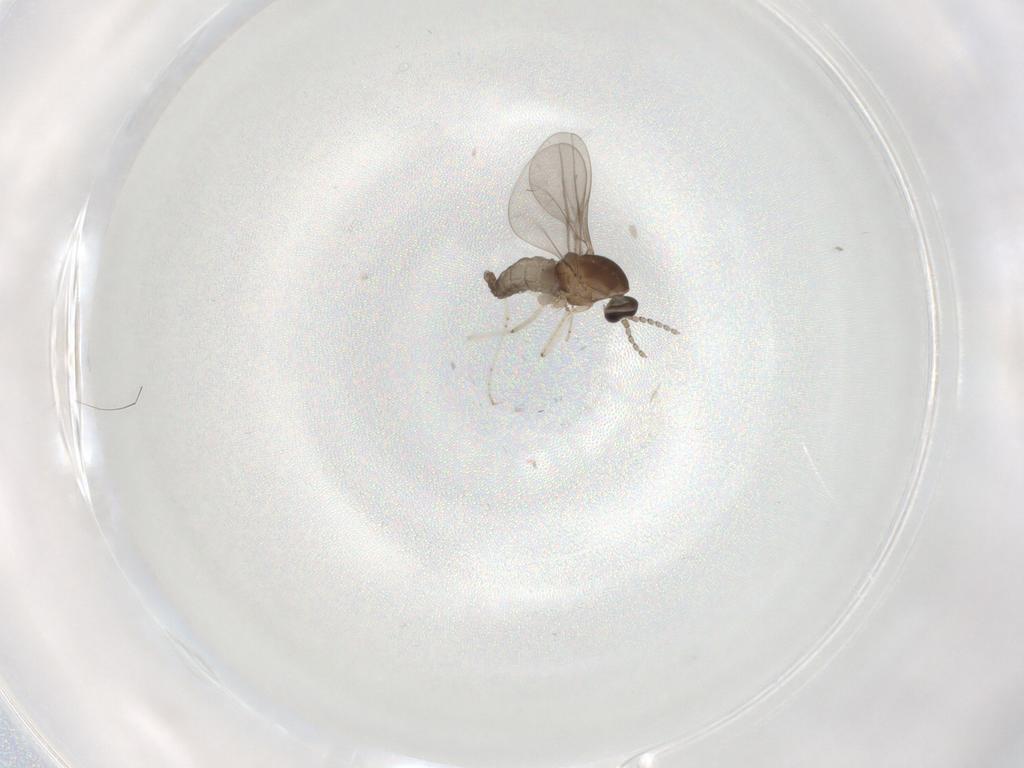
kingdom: Animalia
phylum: Arthropoda
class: Insecta
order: Diptera
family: Cecidomyiidae
